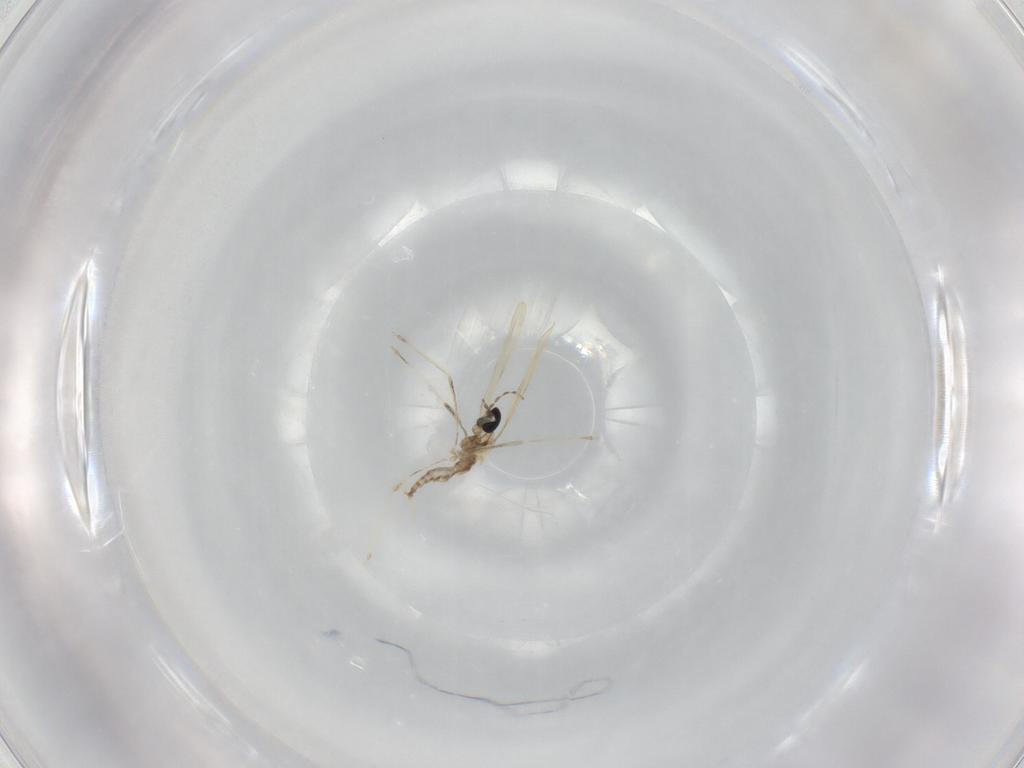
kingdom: Animalia
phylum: Arthropoda
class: Insecta
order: Diptera
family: Cecidomyiidae
